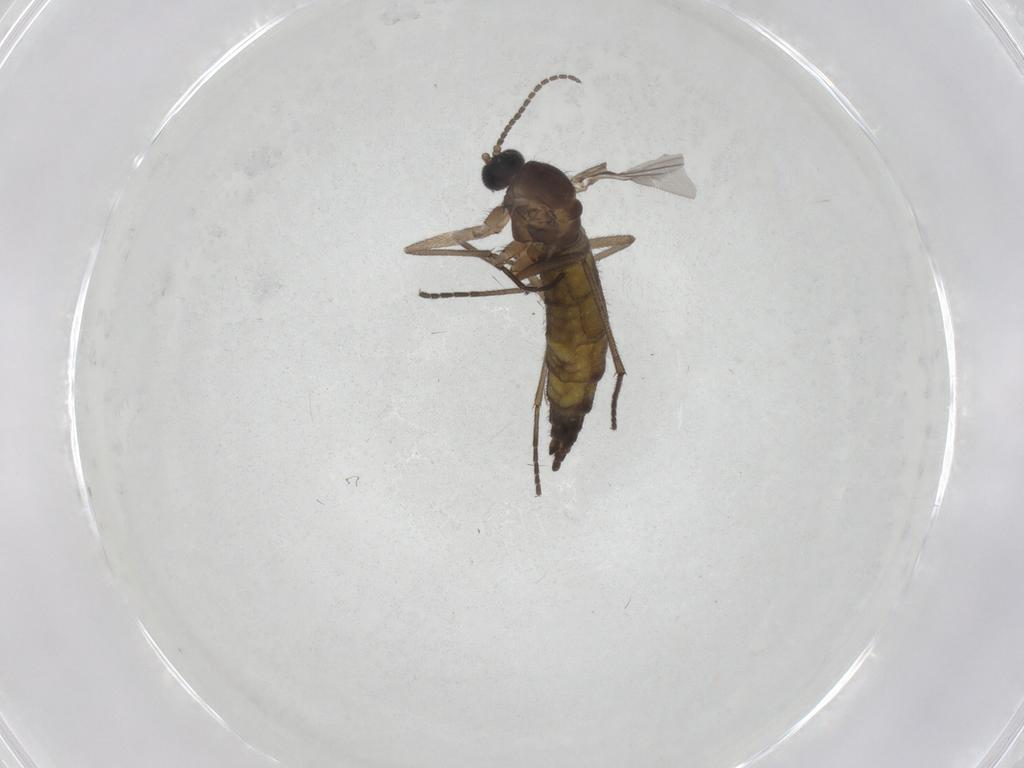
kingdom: Animalia
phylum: Arthropoda
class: Insecta
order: Diptera
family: Sciaridae
